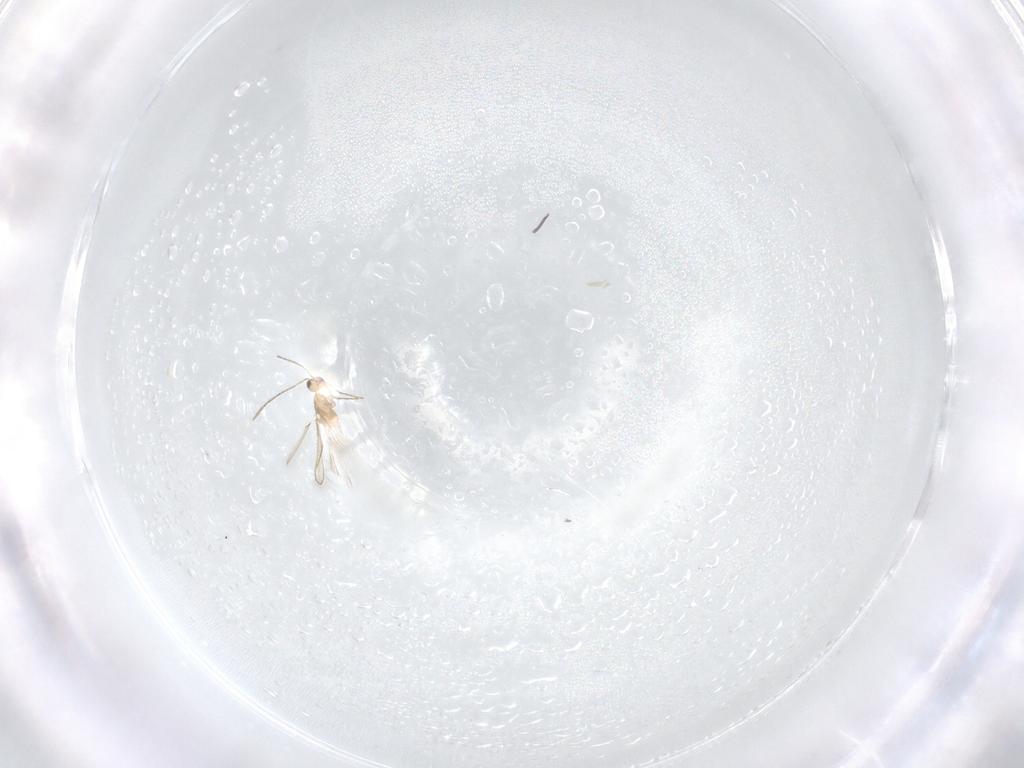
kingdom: Animalia
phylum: Arthropoda
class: Insecta
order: Hymenoptera
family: Mymaridae
